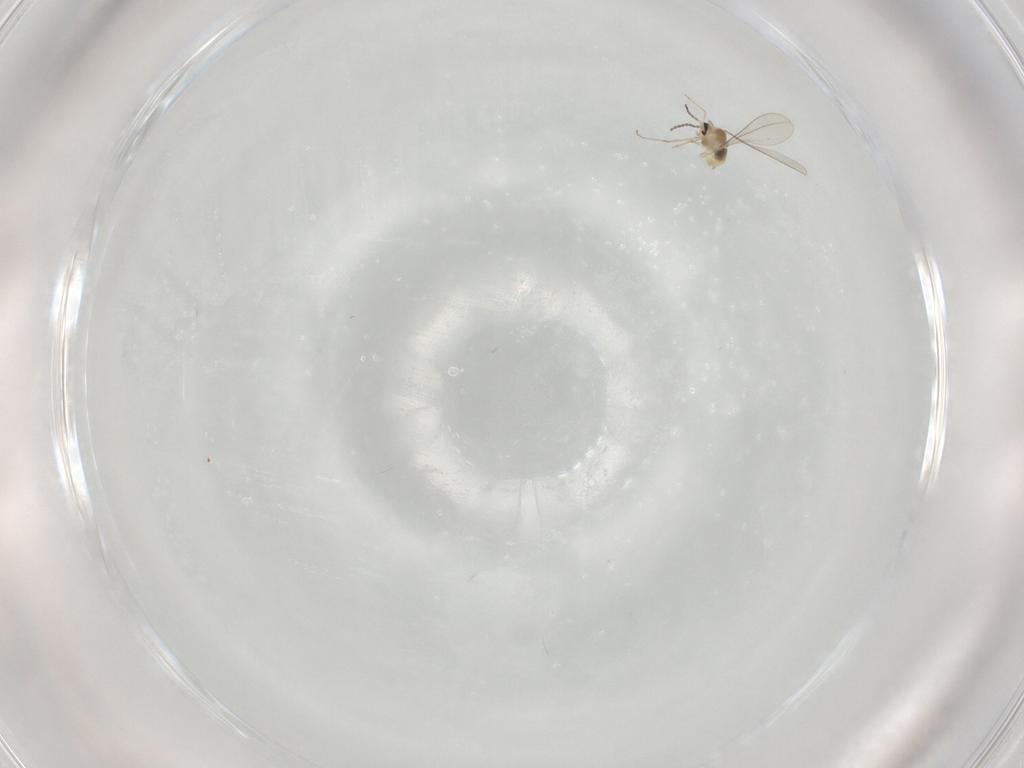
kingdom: Animalia
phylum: Arthropoda
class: Insecta
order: Diptera
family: Cecidomyiidae
